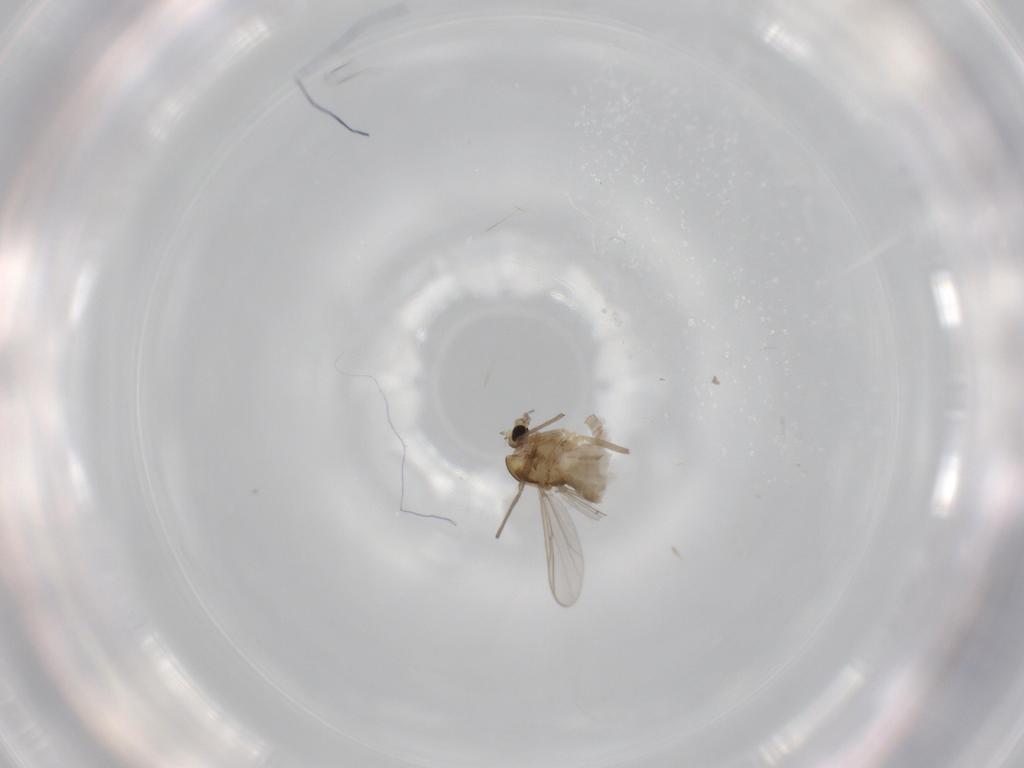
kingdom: Animalia
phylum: Arthropoda
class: Insecta
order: Diptera
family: Chironomidae
